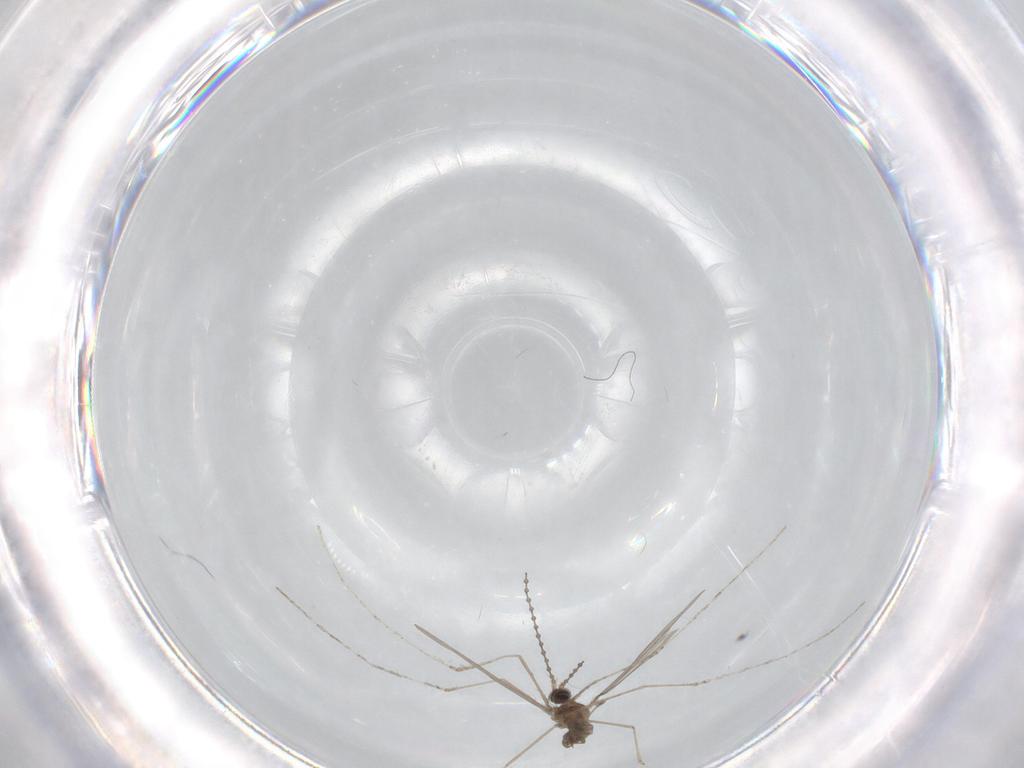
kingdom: Animalia
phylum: Arthropoda
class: Insecta
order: Diptera
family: Cecidomyiidae
